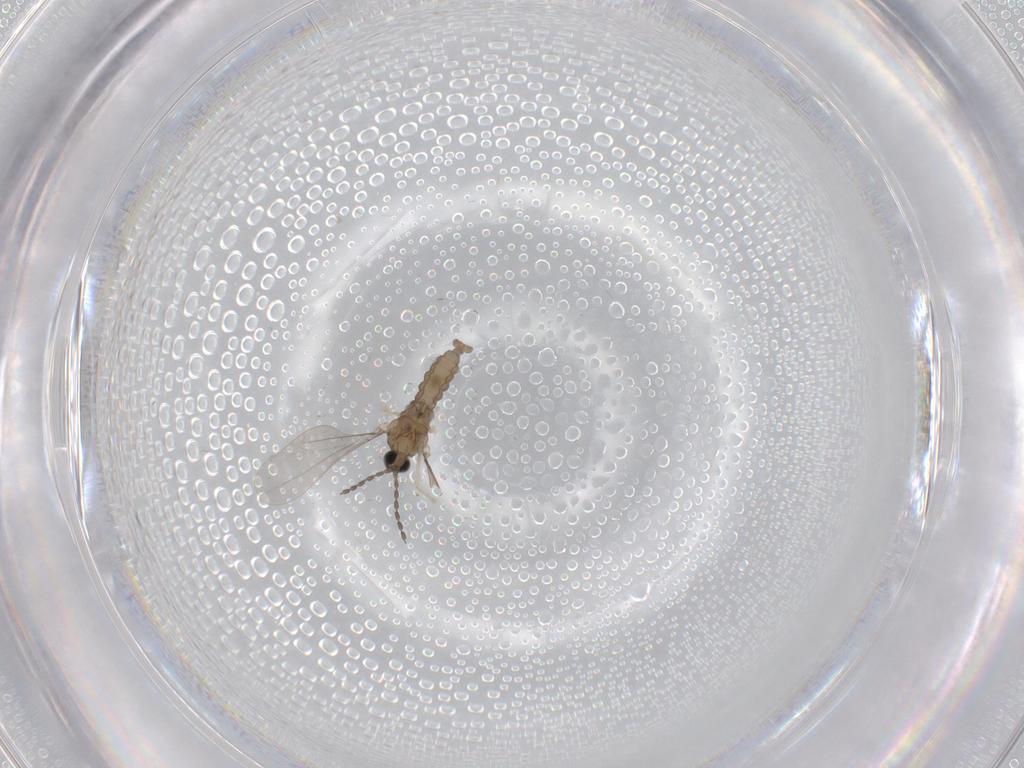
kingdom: Animalia
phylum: Arthropoda
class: Insecta
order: Diptera
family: Cecidomyiidae
